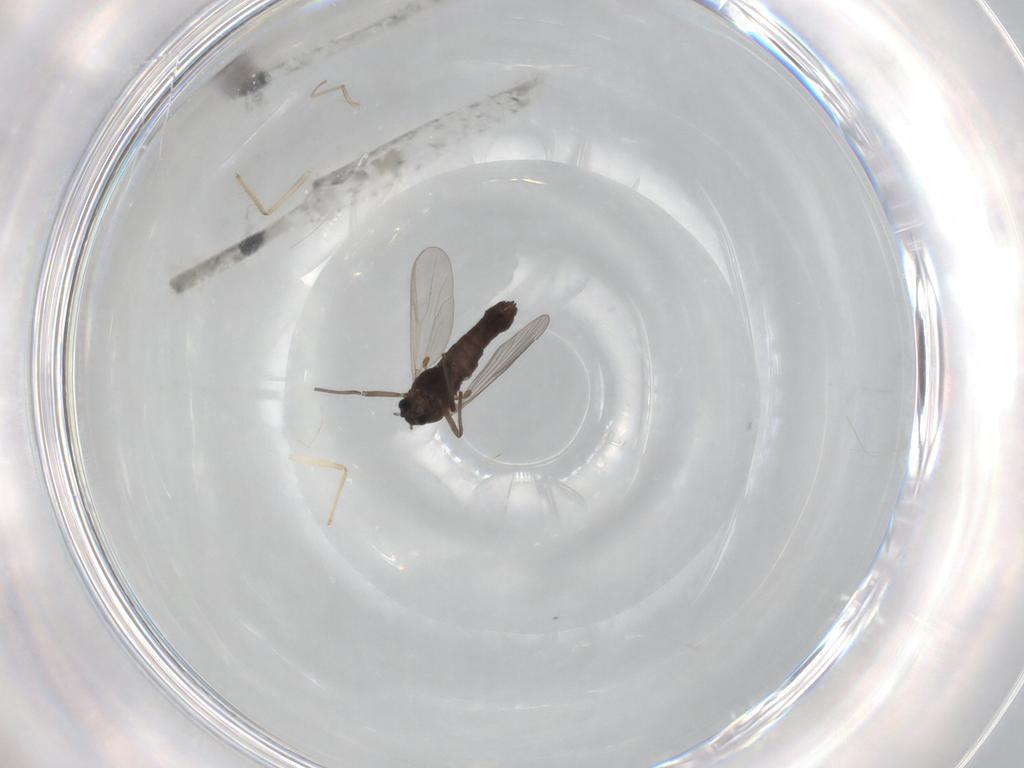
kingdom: Animalia
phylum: Arthropoda
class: Insecta
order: Diptera
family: Chironomidae
